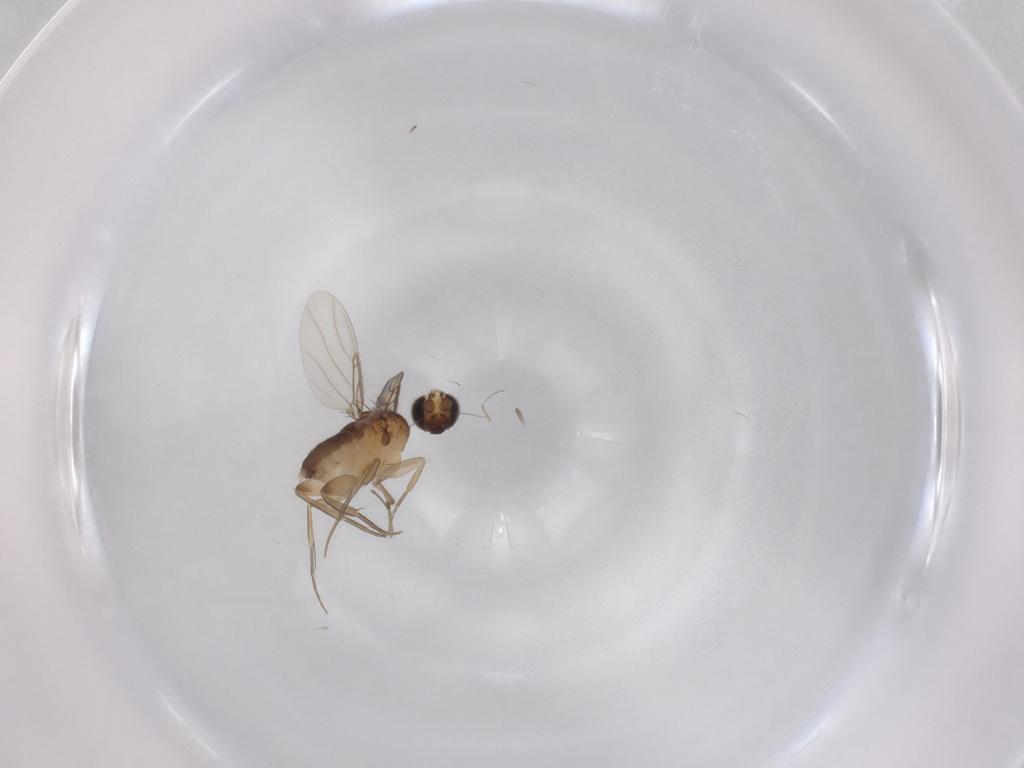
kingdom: Animalia
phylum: Arthropoda
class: Insecta
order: Diptera
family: Phoridae
